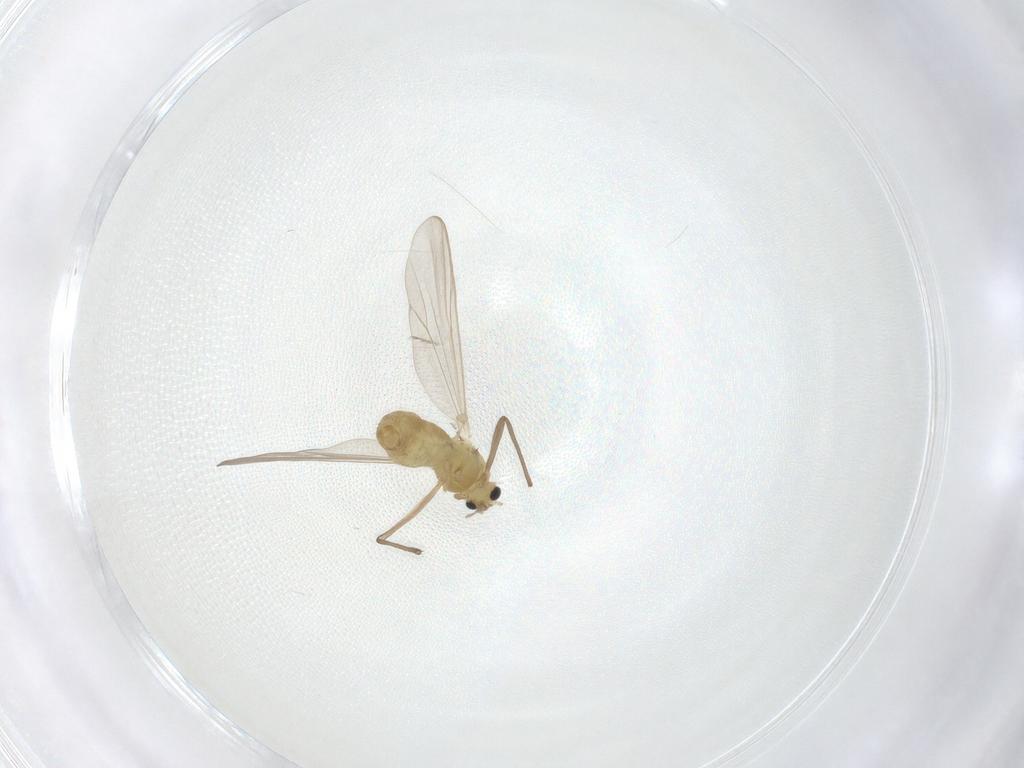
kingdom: Animalia
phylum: Arthropoda
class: Insecta
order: Diptera
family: Chironomidae
